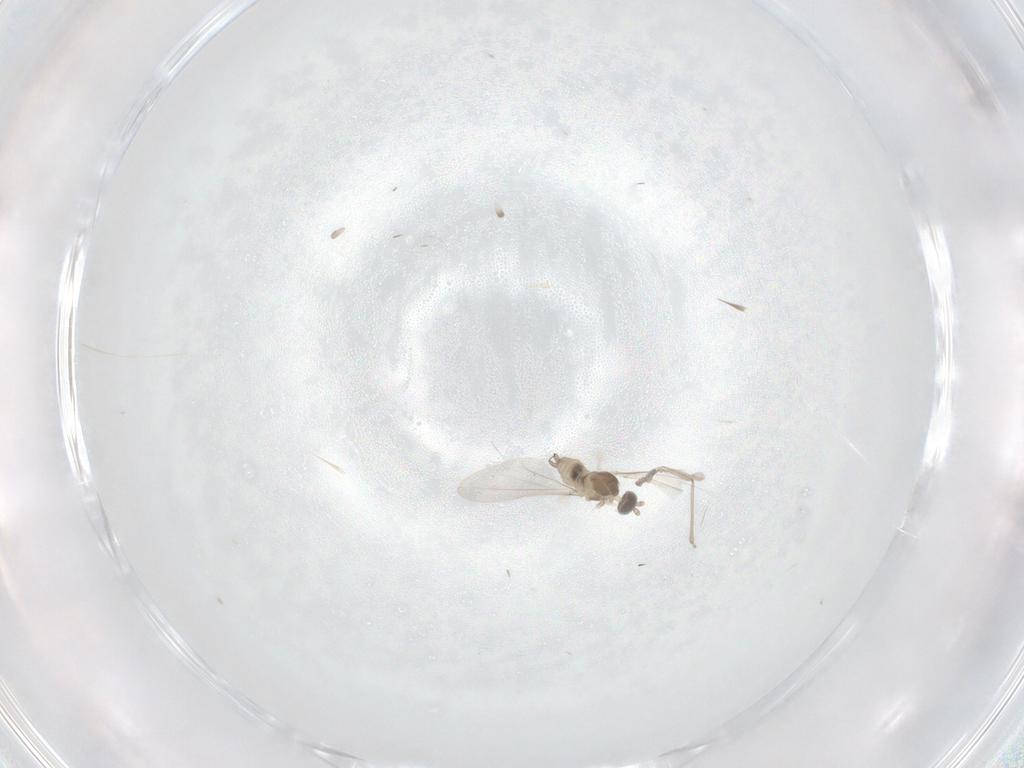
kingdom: Animalia
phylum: Arthropoda
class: Insecta
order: Diptera
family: Cecidomyiidae
